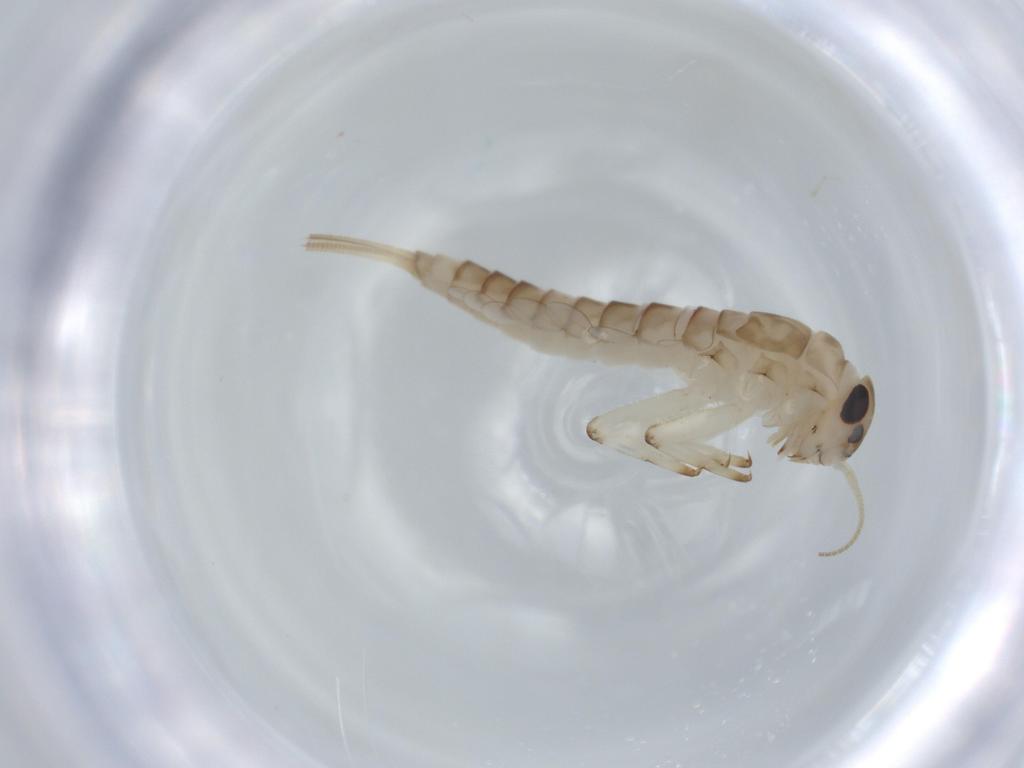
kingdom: Animalia
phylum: Arthropoda
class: Insecta
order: Ephemeroptera
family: Baetidae
